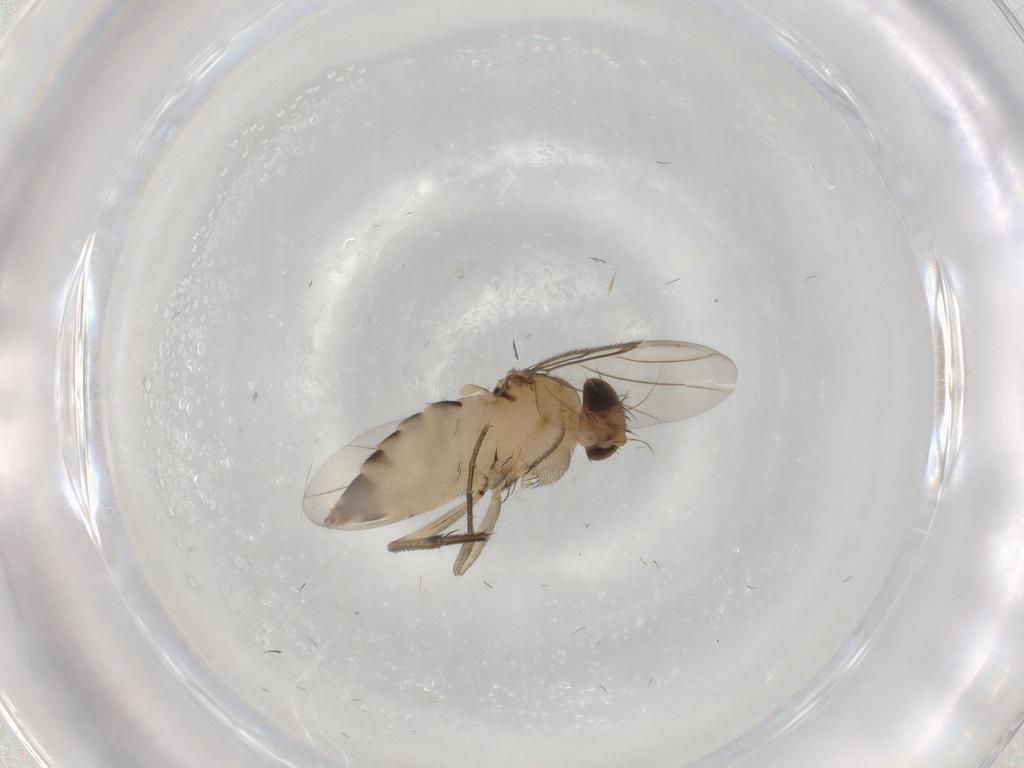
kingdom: Animalia
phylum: Arthropoda
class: Insecta
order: Diptera
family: Phoridae
